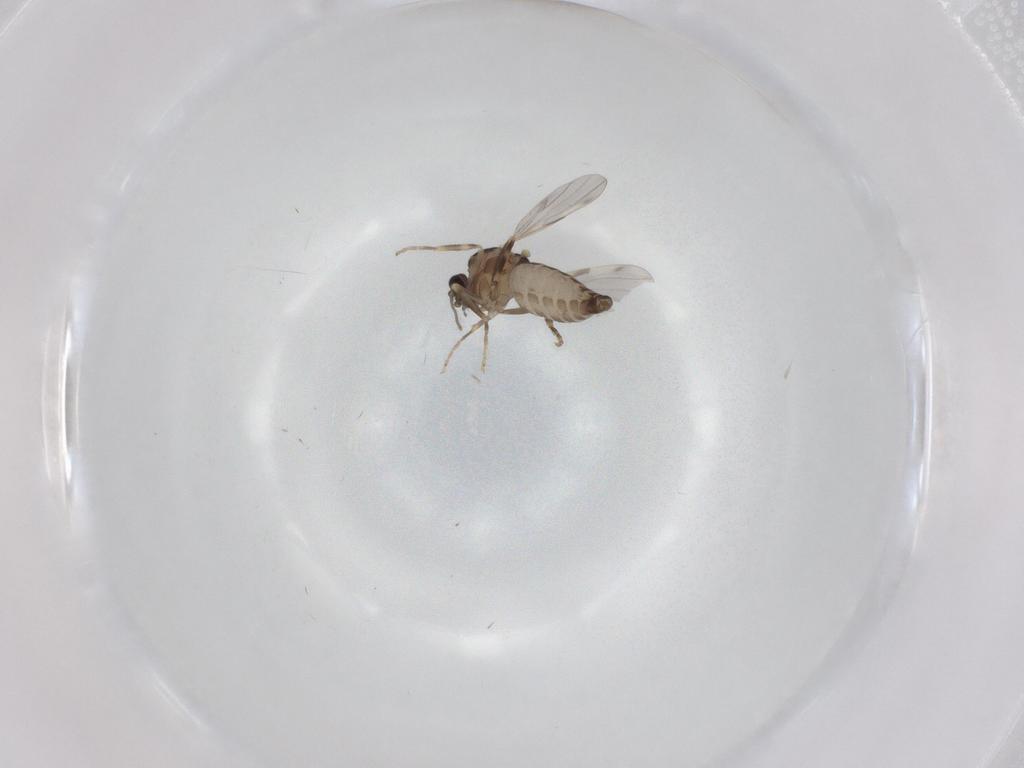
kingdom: Animalia
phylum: Arthropoda
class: Insecta
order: Diptera
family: Ceratopogonidae
